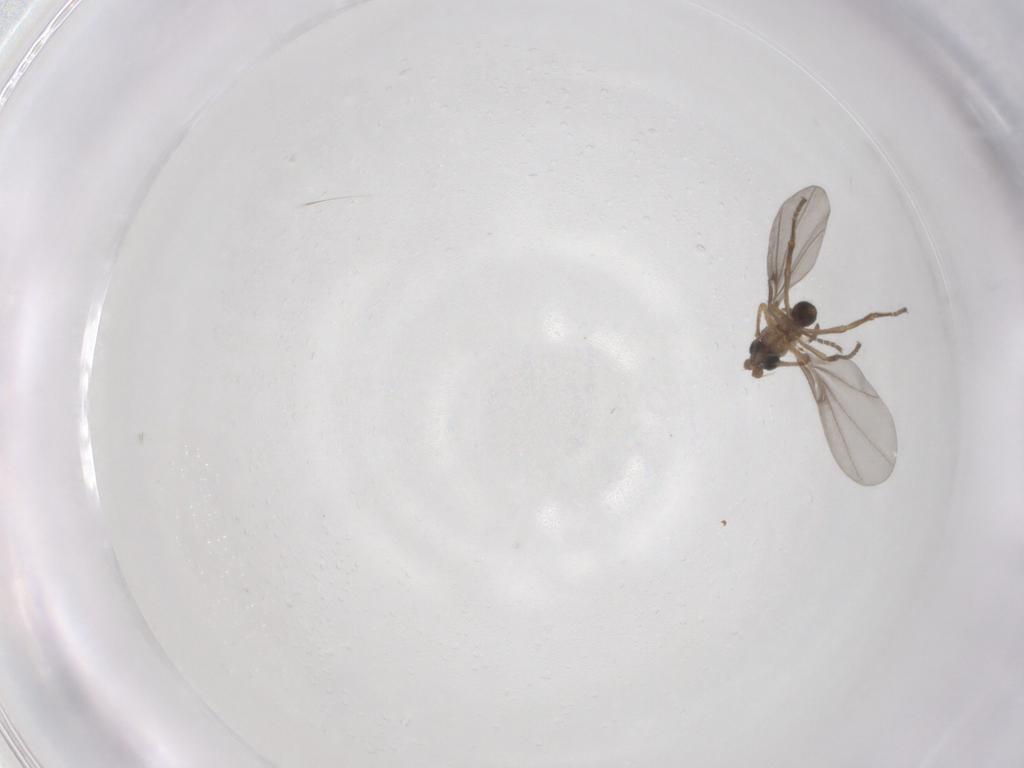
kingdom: Animalia
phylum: Arthropoda
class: Insecta
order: Diptera
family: Phoridae
